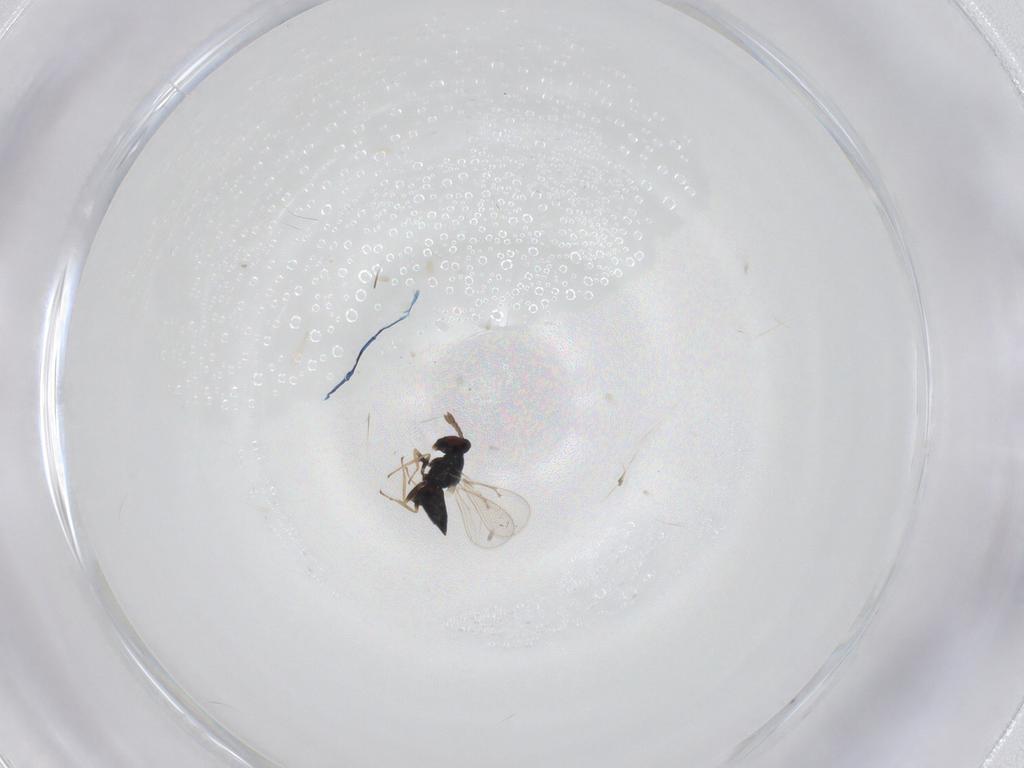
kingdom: Animalia
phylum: Arthropoda
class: Insecta
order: Hymenoptera
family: Eulophidae
